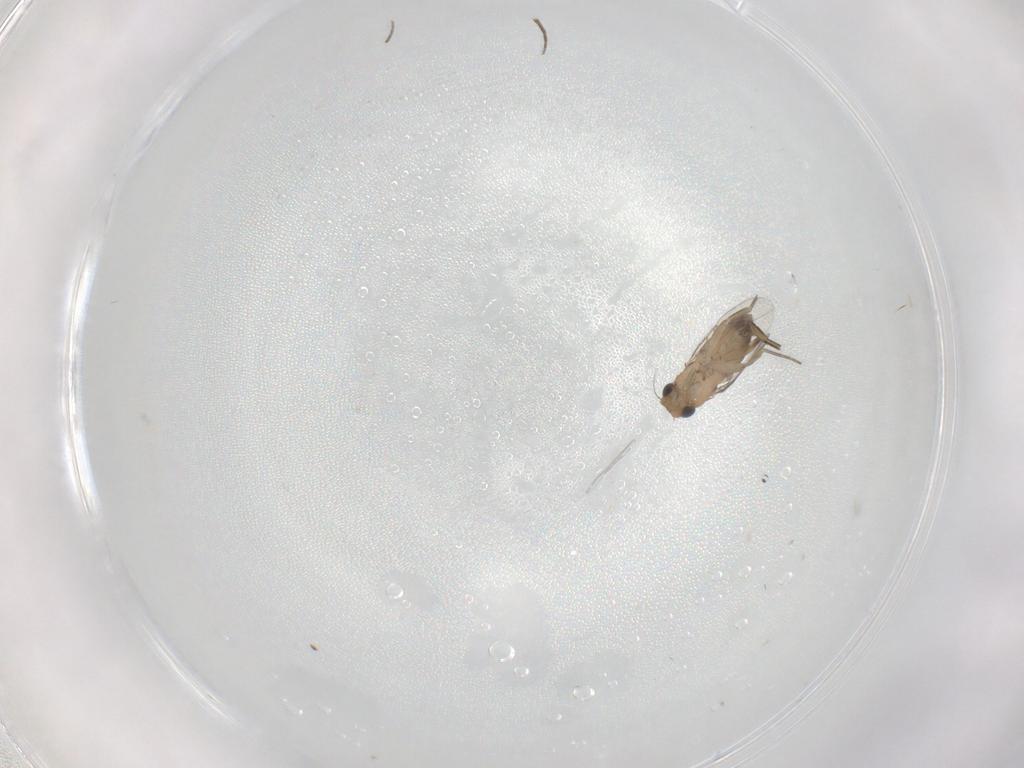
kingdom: Animalia
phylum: Arthropoda
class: Insecta
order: Diptera
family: Phoridae
